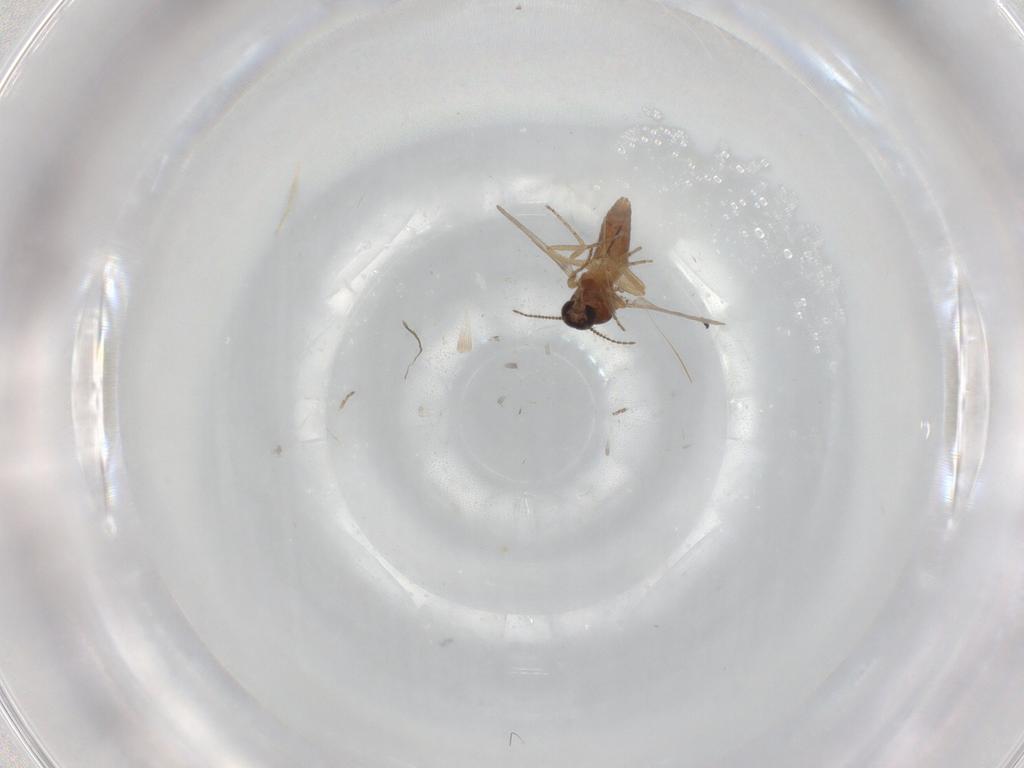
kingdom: Animalia
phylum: Arthropoda
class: Insecta
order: Diptera
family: Ceratopogonidae
